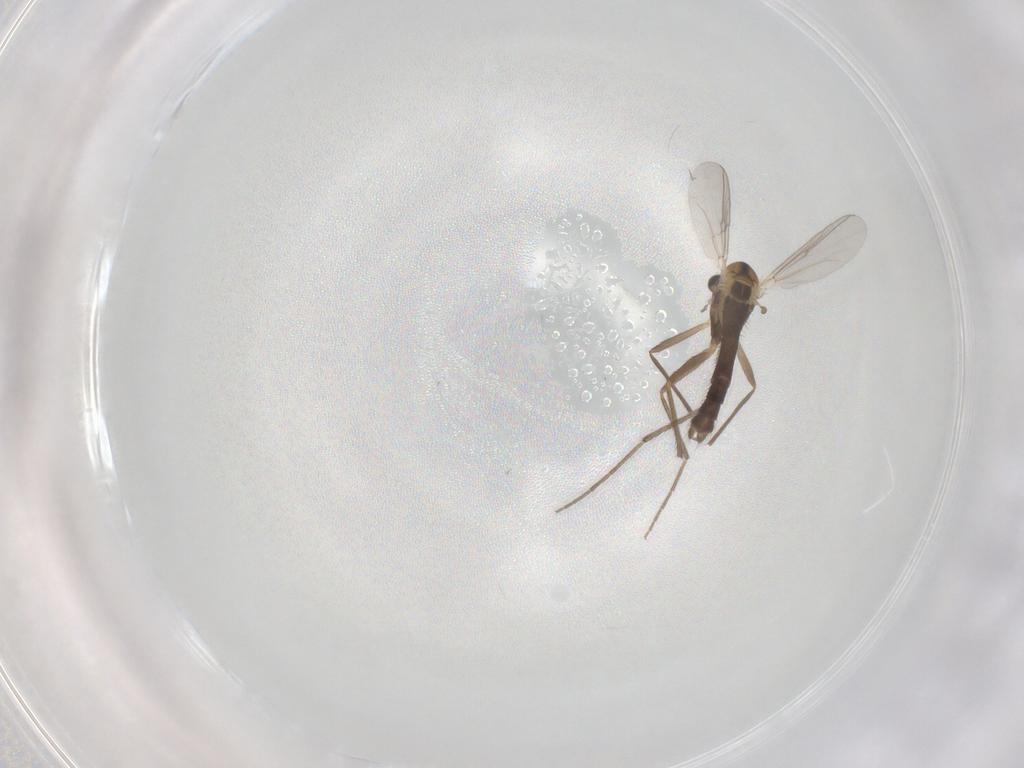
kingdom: Animalia
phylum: Arthropoda
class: Insecta
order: Diptera
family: Chironomidae
